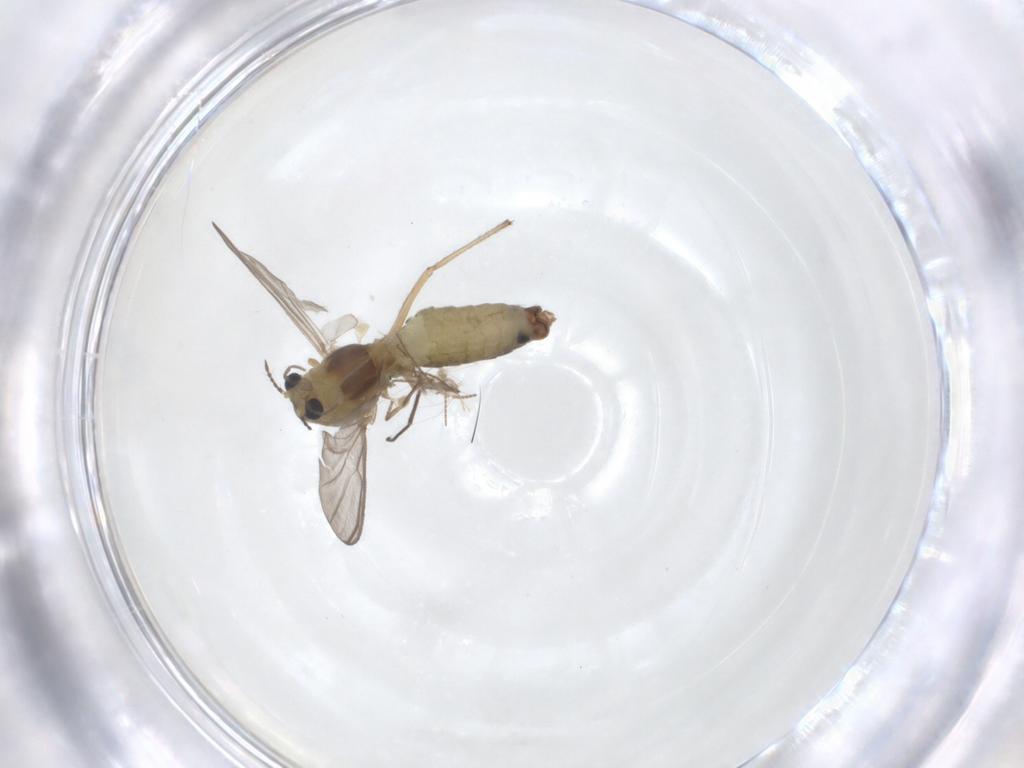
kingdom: Animalia
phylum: Arthropoda
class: Insecta
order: Diptera
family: Chironomidae
